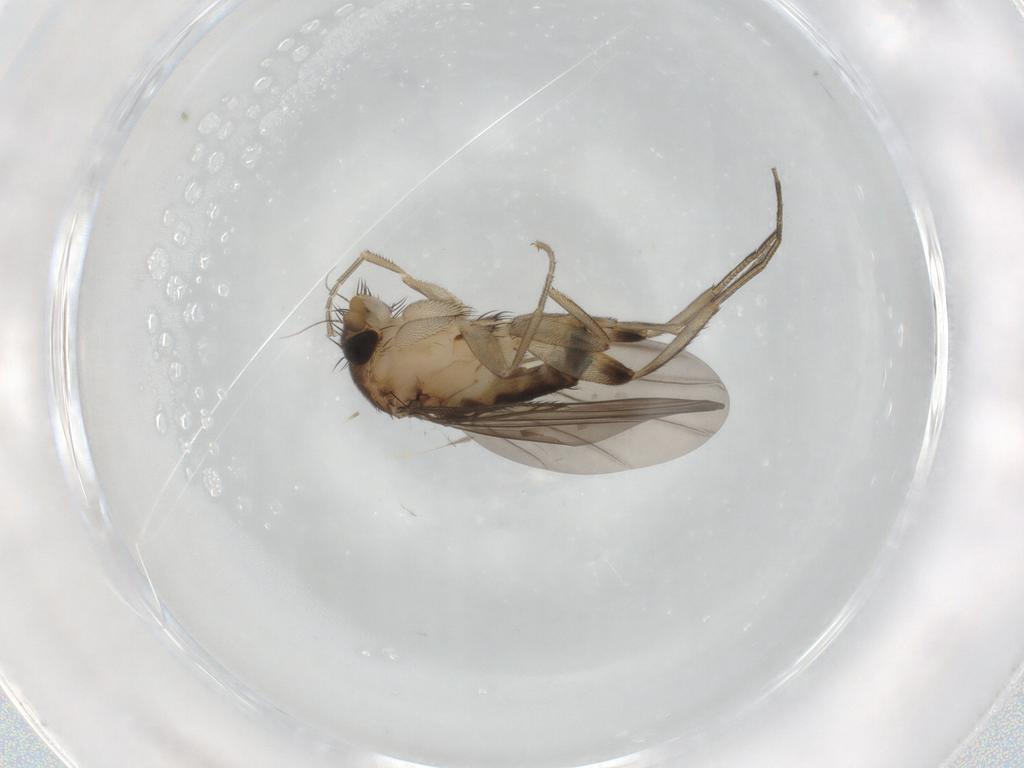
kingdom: Animalia
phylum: Arthropoda
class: Insecta
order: Diptera
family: Phoridae
